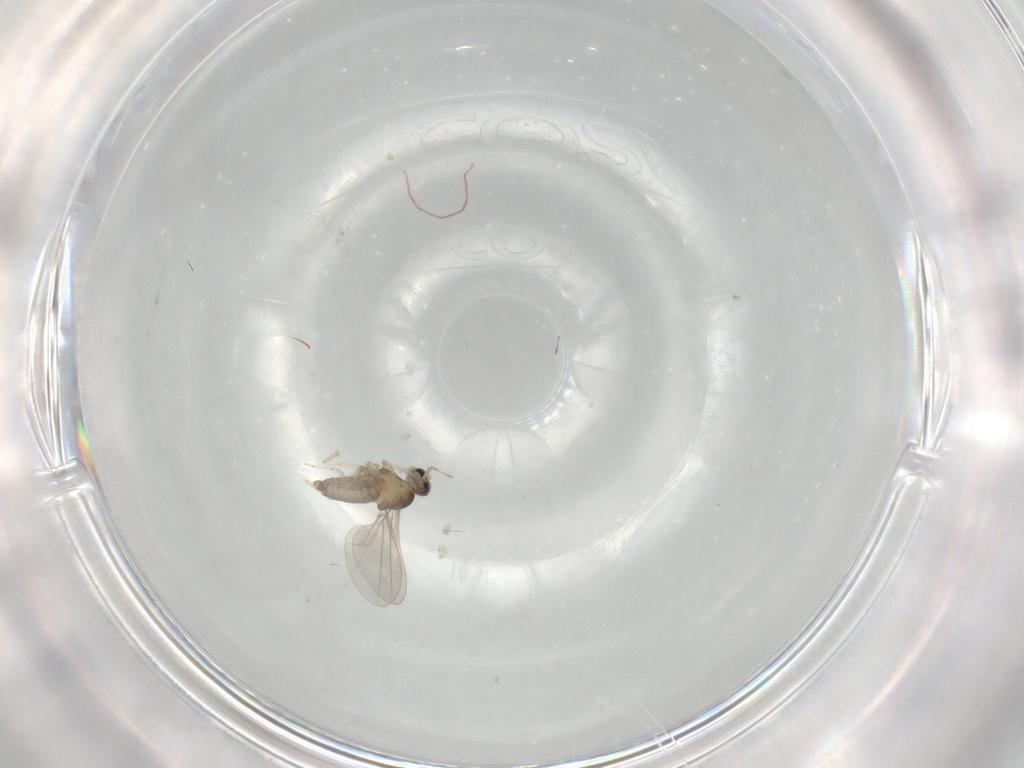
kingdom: Animalia
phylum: Arthropoda
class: Insecta
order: Diptera
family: Cecidomyiidae
